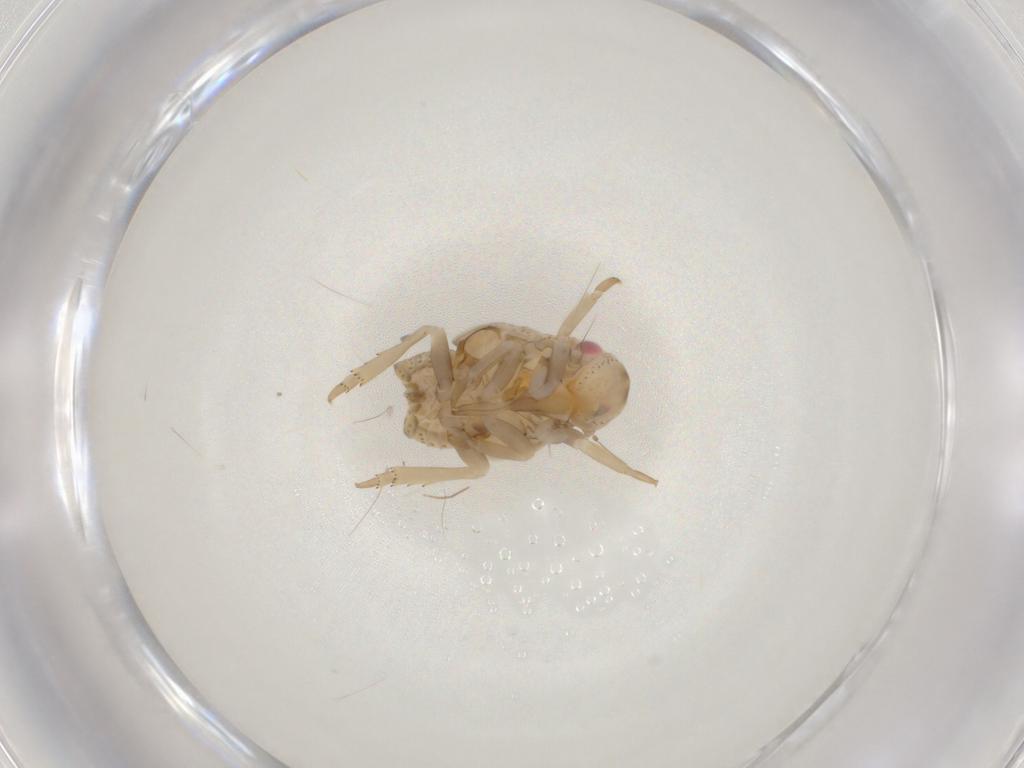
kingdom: Animalia
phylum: Arthropoda
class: Insecta
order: Hemiptera
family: Flatidae
